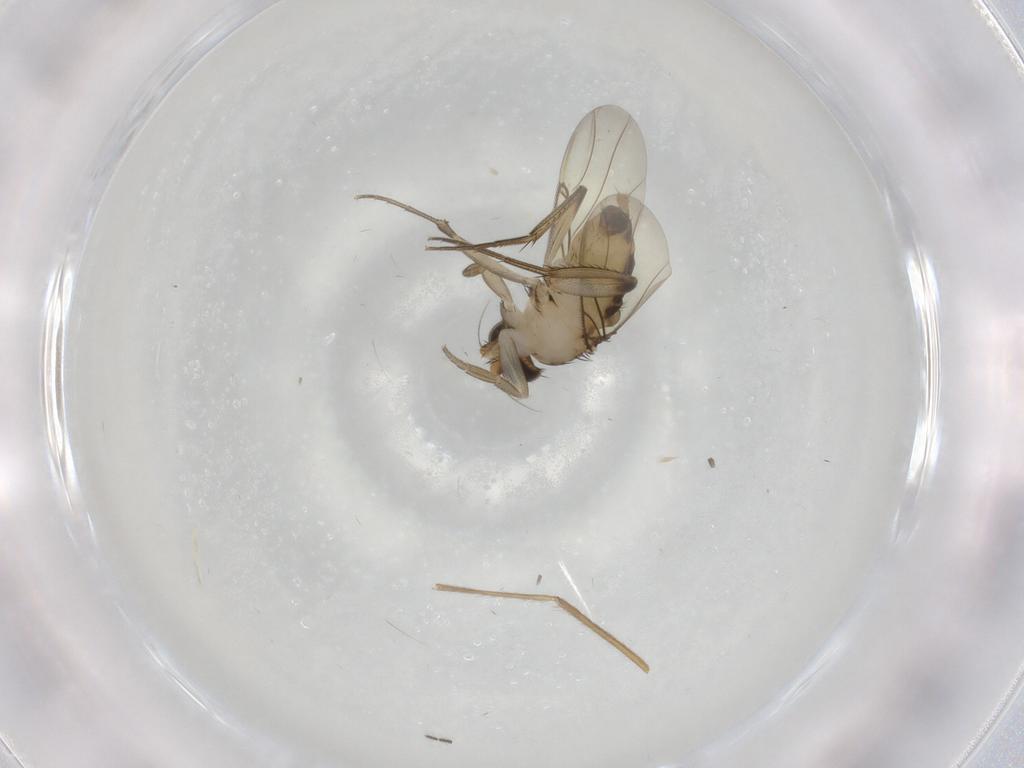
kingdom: Animalia
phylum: Arthropoda
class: Insecta
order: Diptera
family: Phoridae
